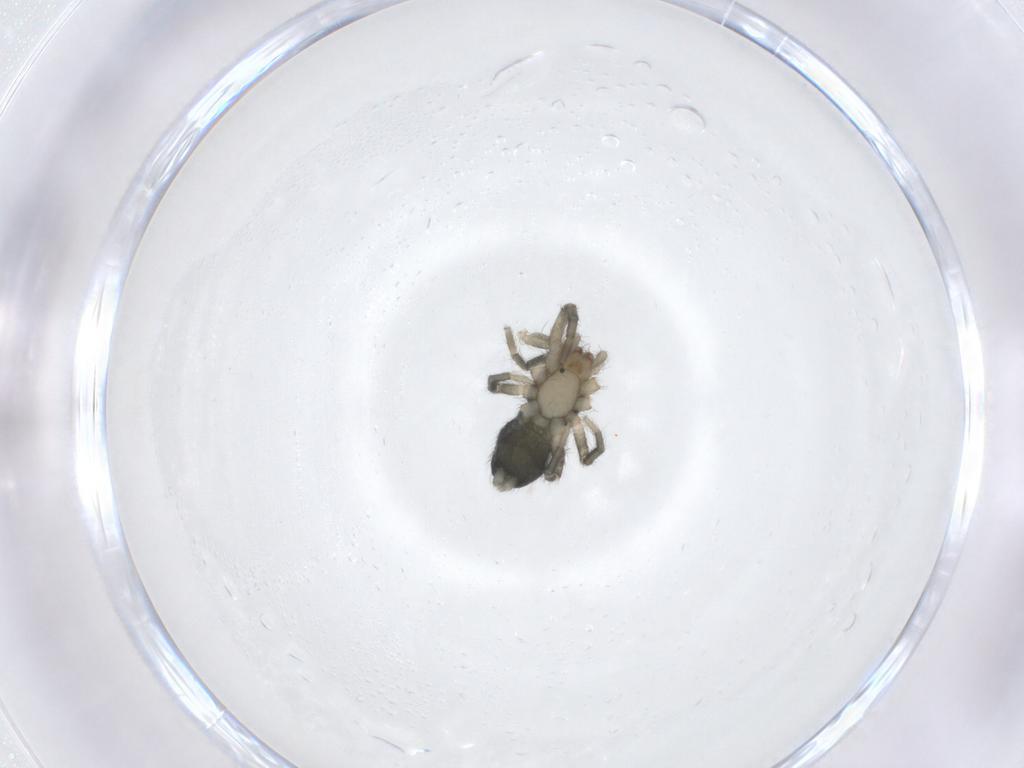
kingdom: Animalia
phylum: Arthropoda
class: Arachnida
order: Araneae
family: Gnaphosidae
